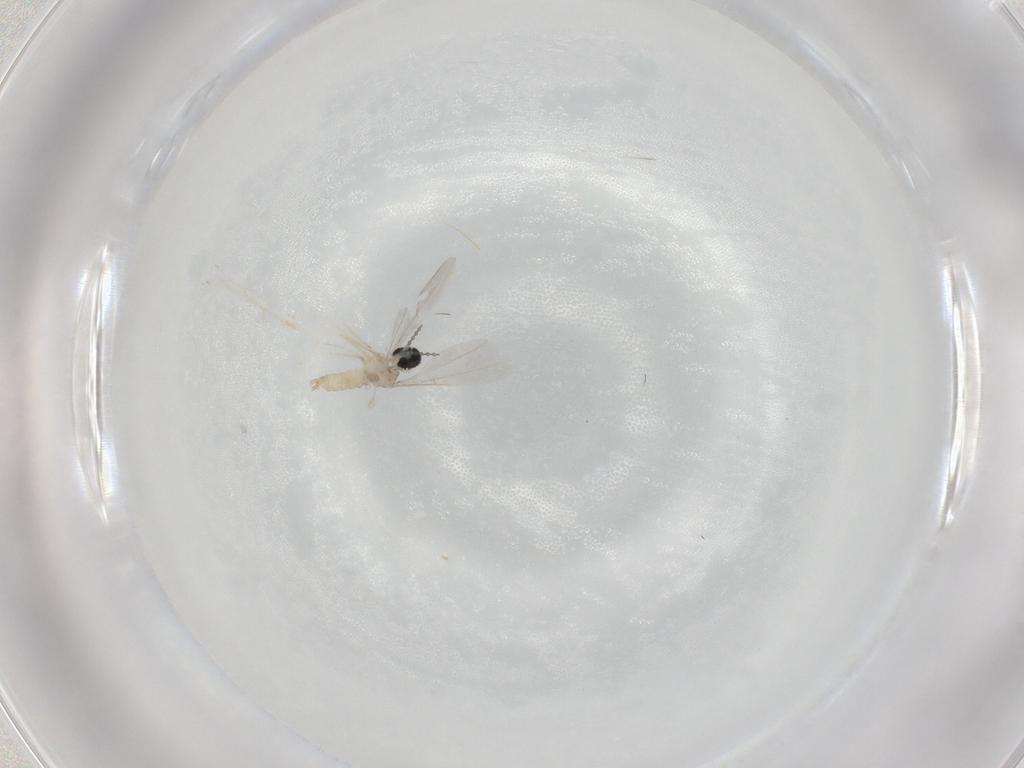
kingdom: Animalia
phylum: Arthropoda
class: Insecta
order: Diptera
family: Cecidomyiidae
